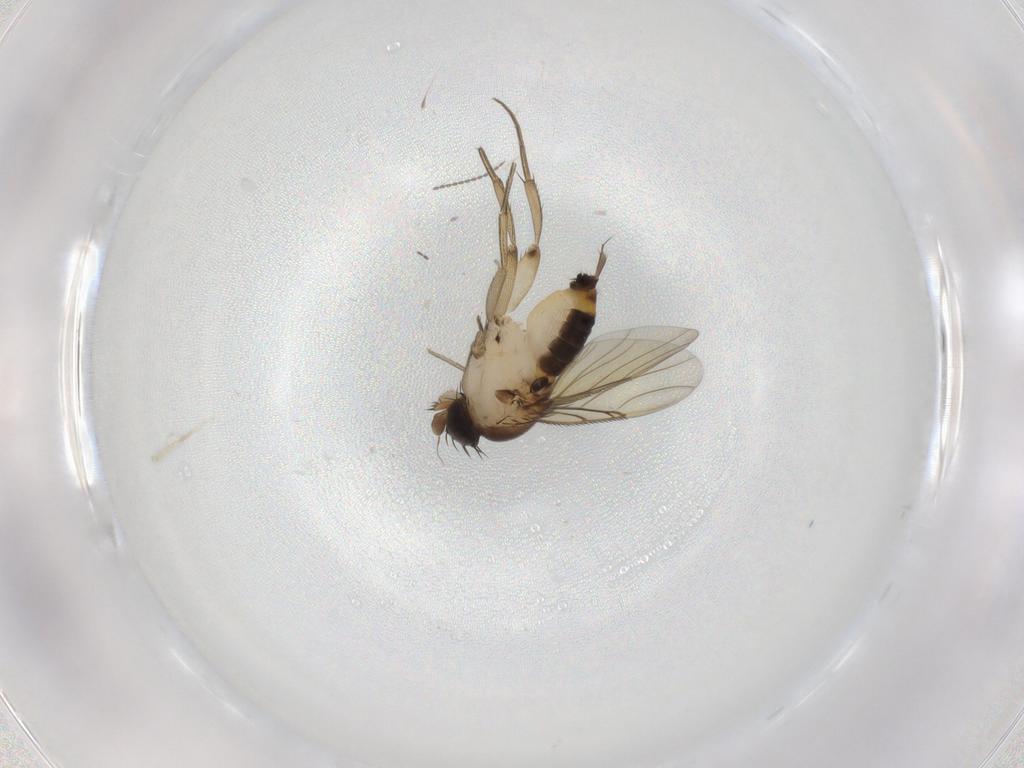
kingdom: Animalia
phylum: Arthropoda
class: Insecta
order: Diptera
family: Phoridae
